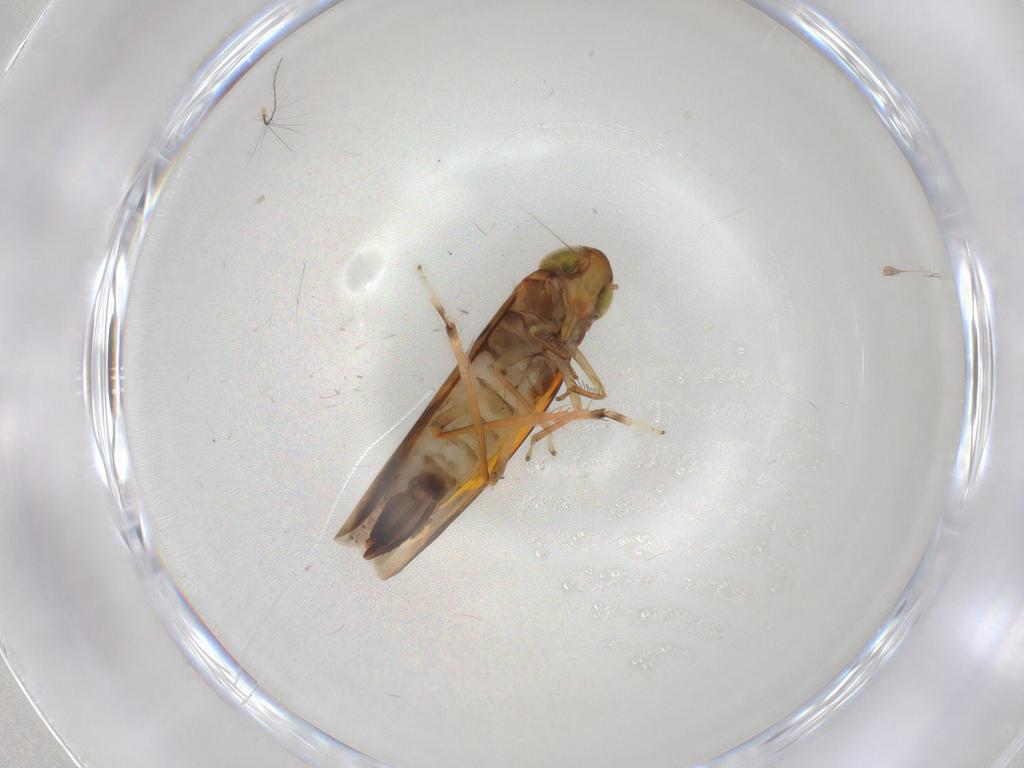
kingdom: Animalia
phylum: Arthropoda
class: Insecta
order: Hemiptera
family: Cicadellidae
